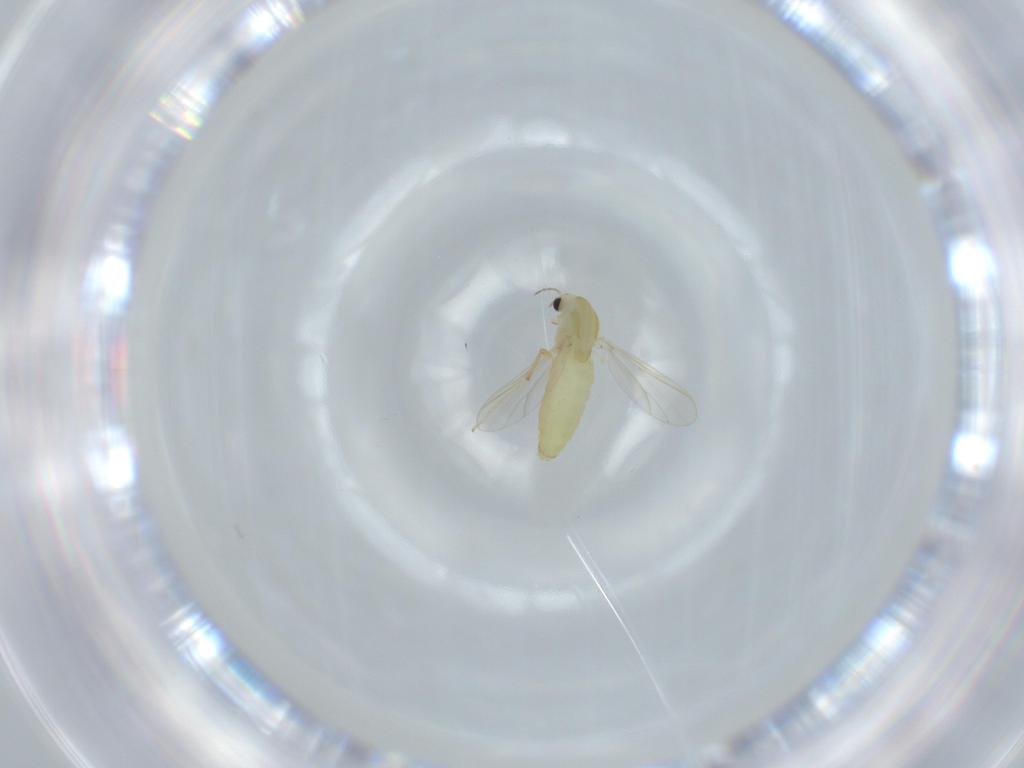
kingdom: Animalia
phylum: Arthropoda
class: Insecta
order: Diptera
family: Chironomidae
